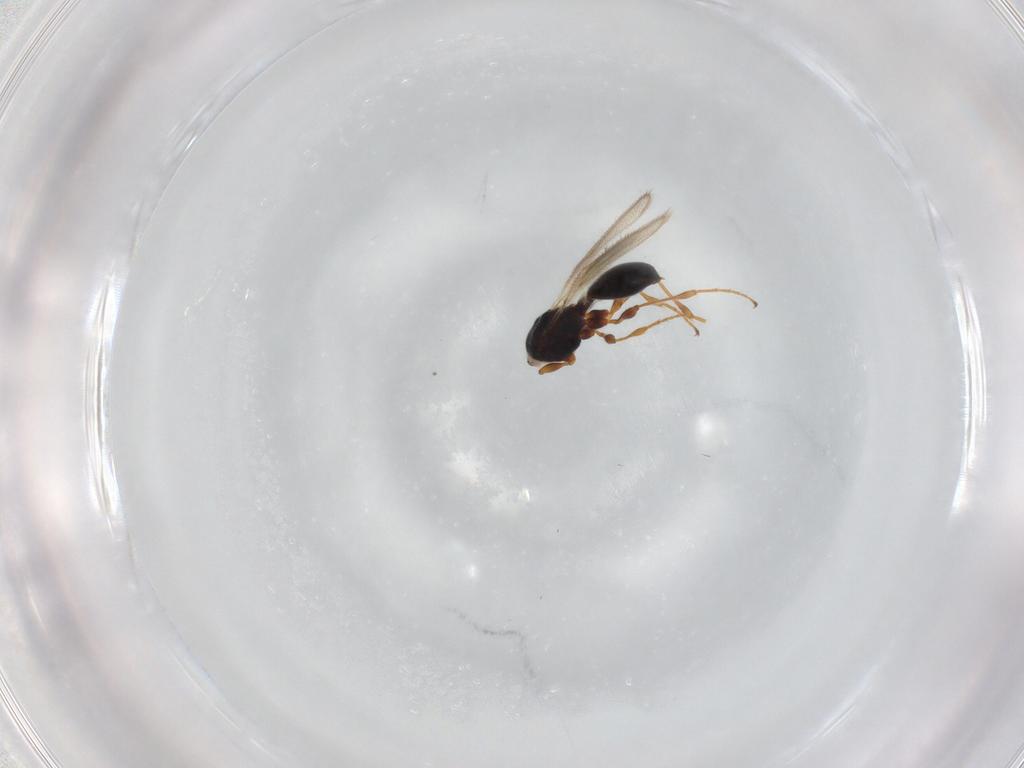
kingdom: Animalia
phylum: Arthropoda
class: Insecta
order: Hymenoptera
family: Diapriidae
